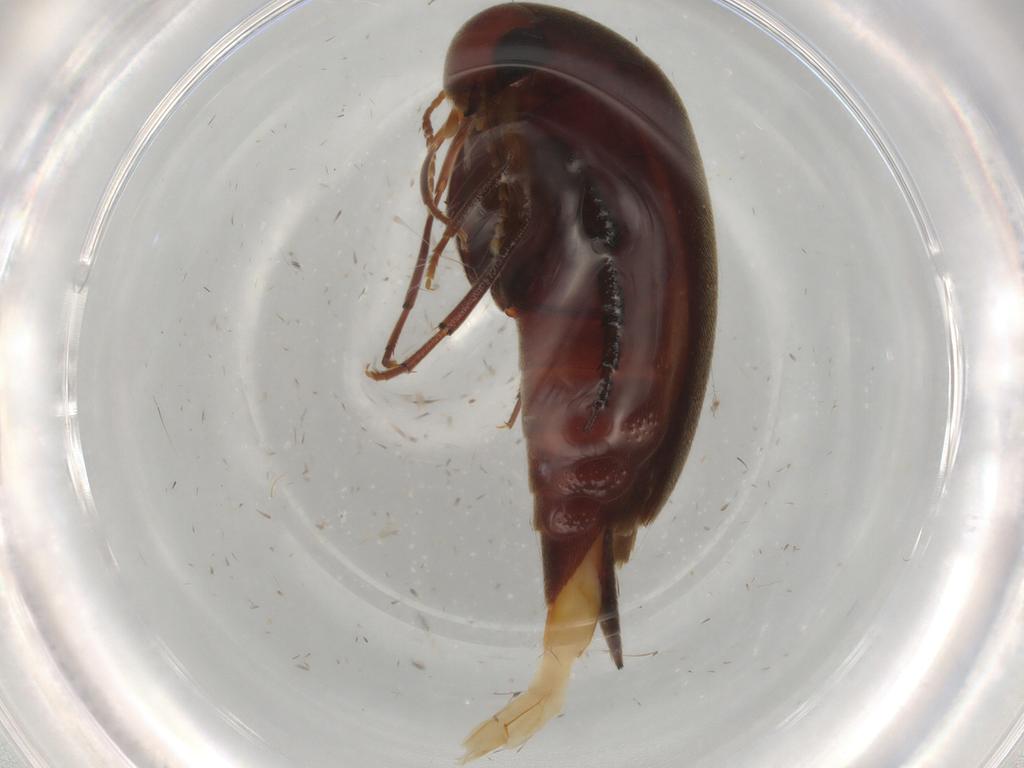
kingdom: Animalia
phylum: Arthropoda
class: Insecta
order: Coleoptera
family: Mordellidae
